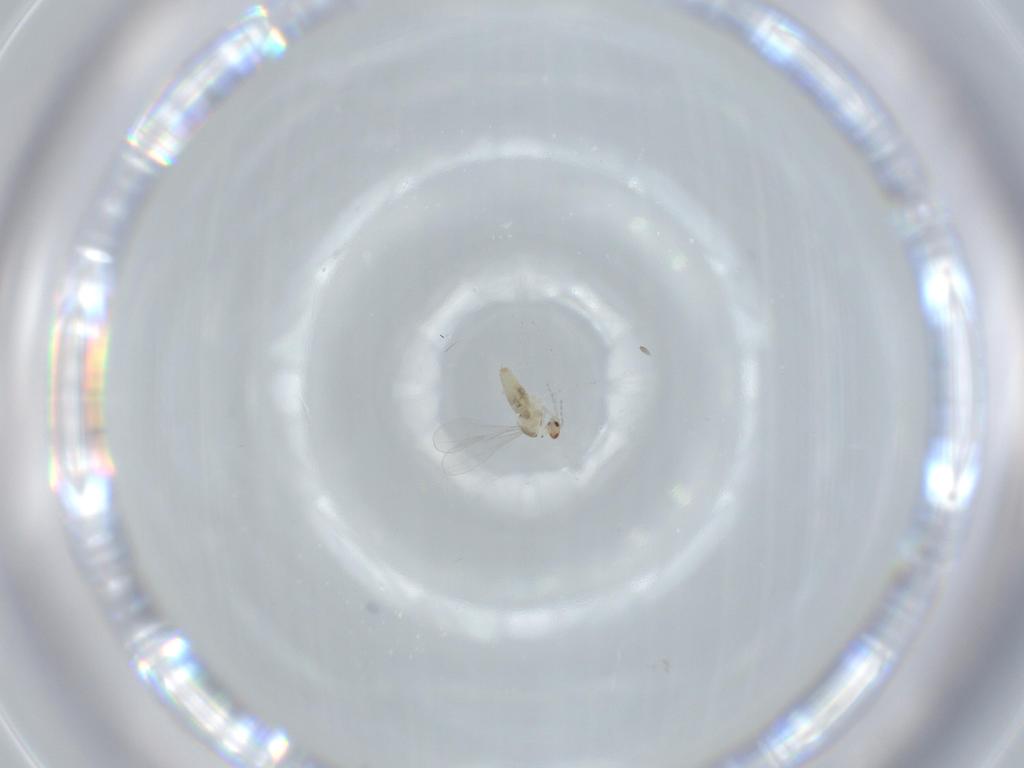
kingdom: Animalia
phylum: Arthropoda
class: Insecta
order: Diptera
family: Cecidomyiidae
